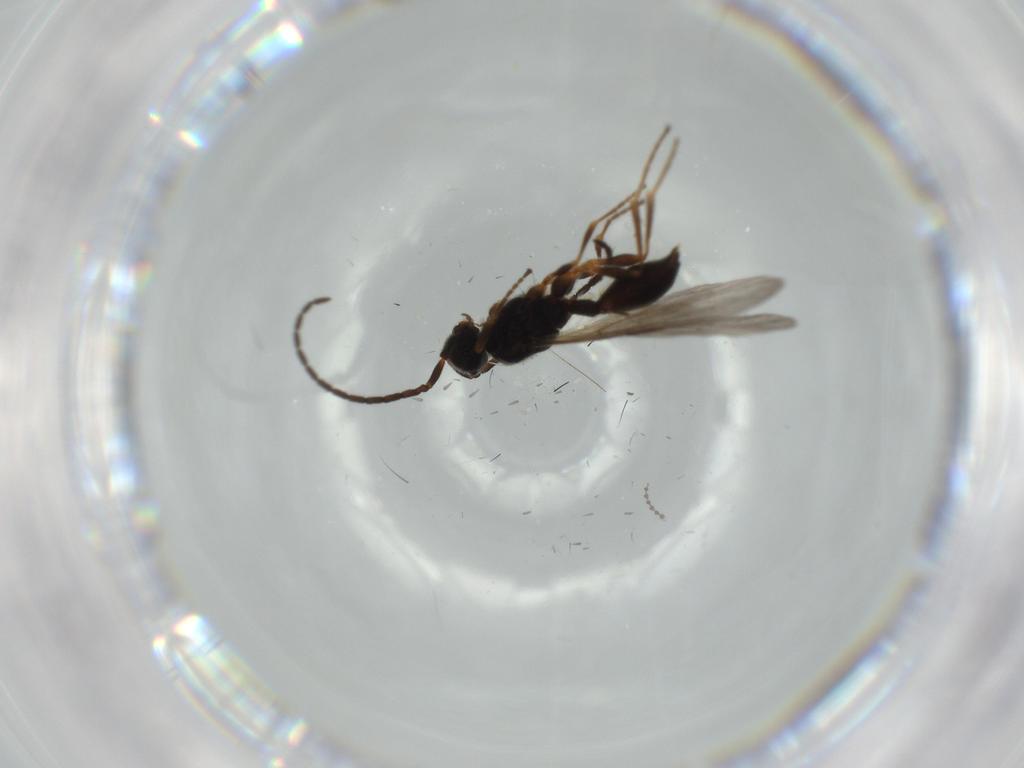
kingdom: Animalia
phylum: Arthropoda
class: Insecta
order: Hymenoptera
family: Braconidae
